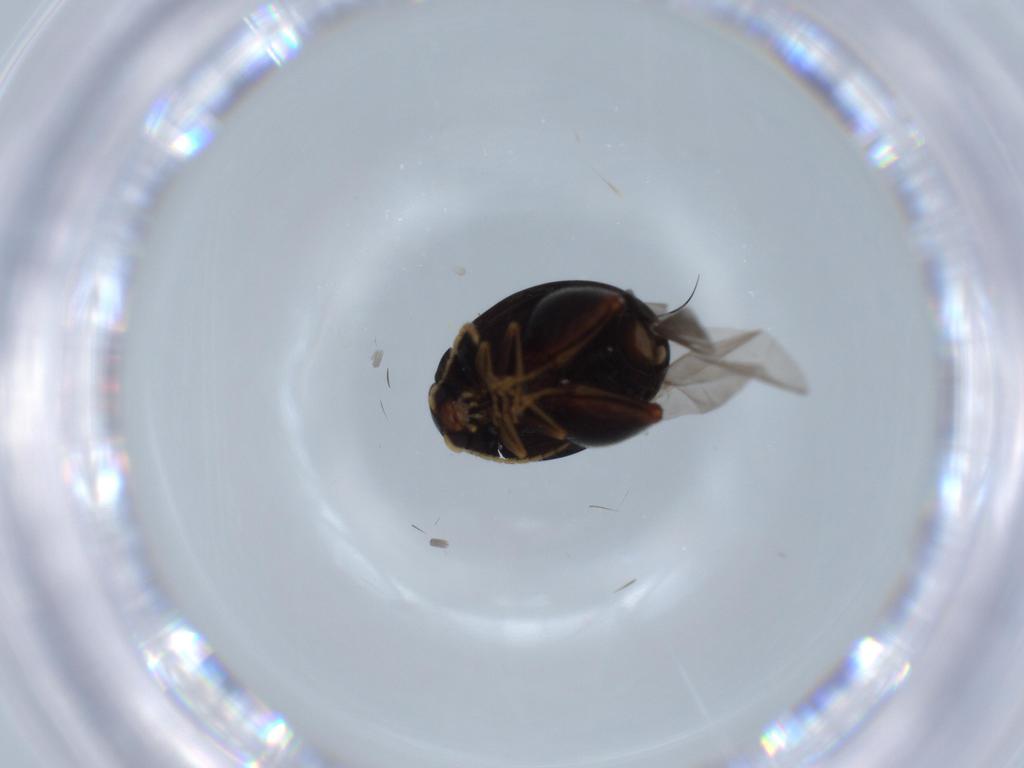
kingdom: Animalia
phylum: Arthropoda
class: Insecta
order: Coleoptera
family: Chrysomelidae
